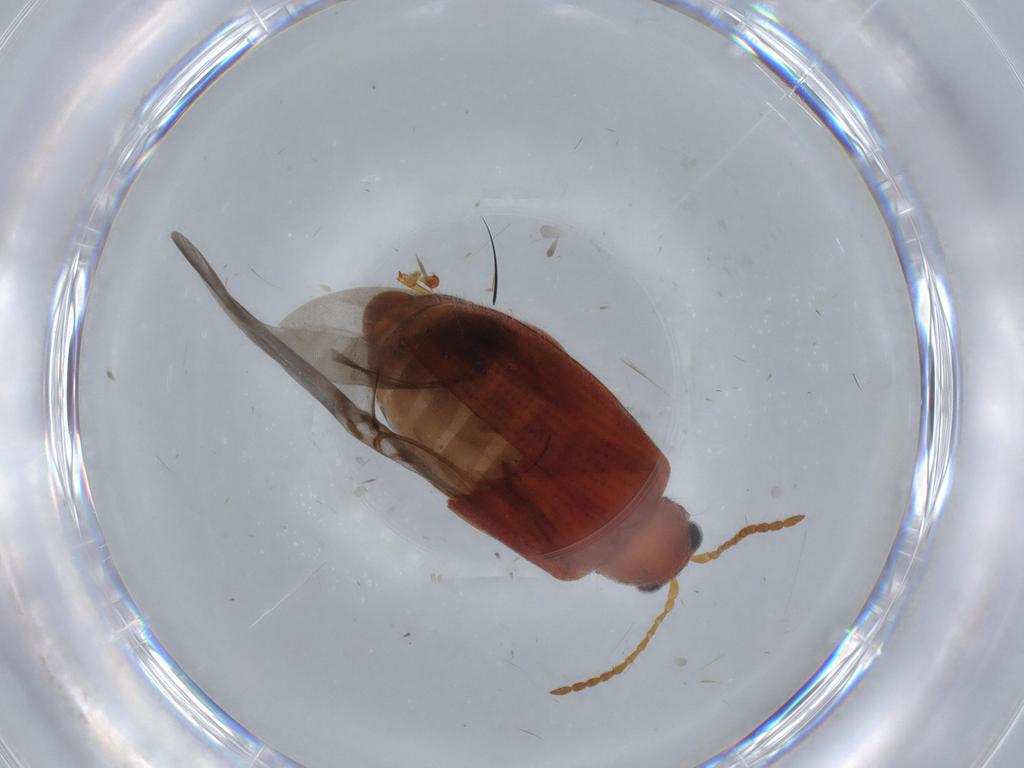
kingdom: Animalia
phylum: Arthropoda
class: Insecta
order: Coleoptera
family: Chrysomelidae
